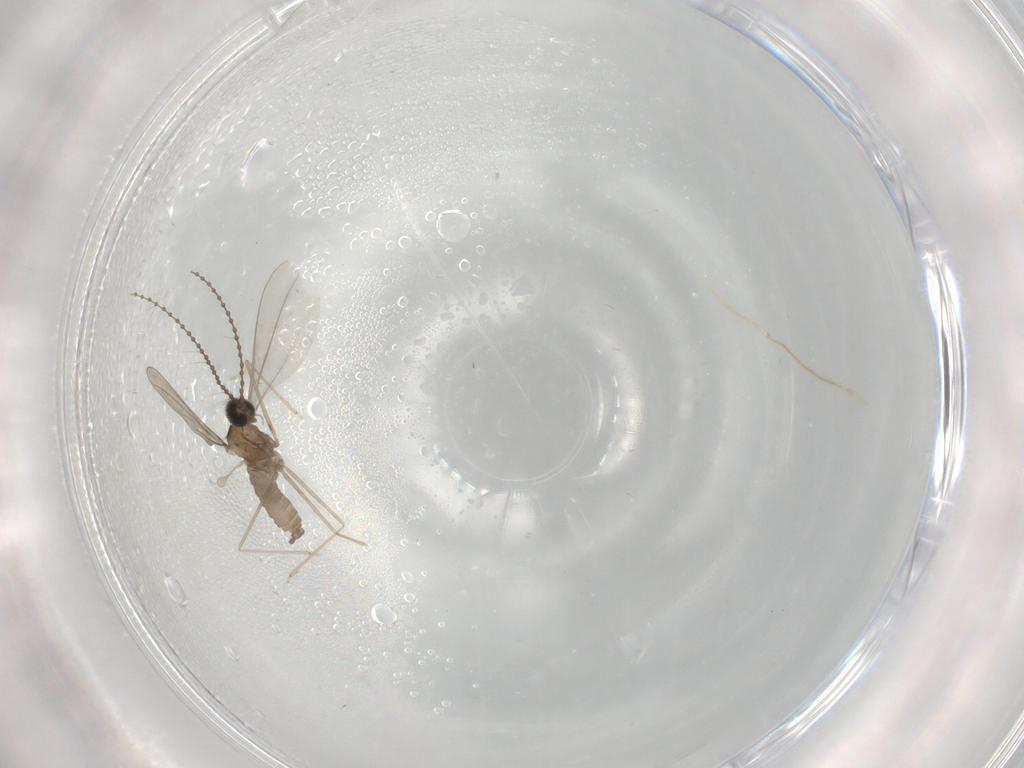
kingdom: Animalia
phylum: Arthropoda
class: Insecta
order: Diptera
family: Cecidomyiidae
